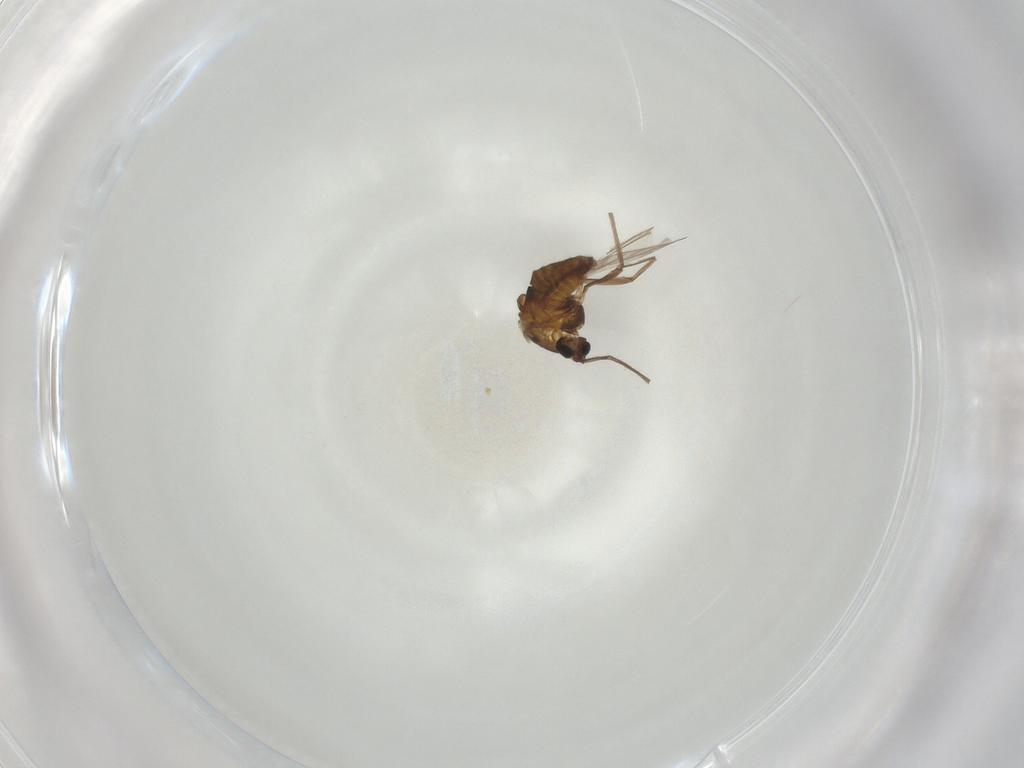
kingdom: Animalia
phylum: Arthropoda
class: Insecta
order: Diptera
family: Chironomidae
